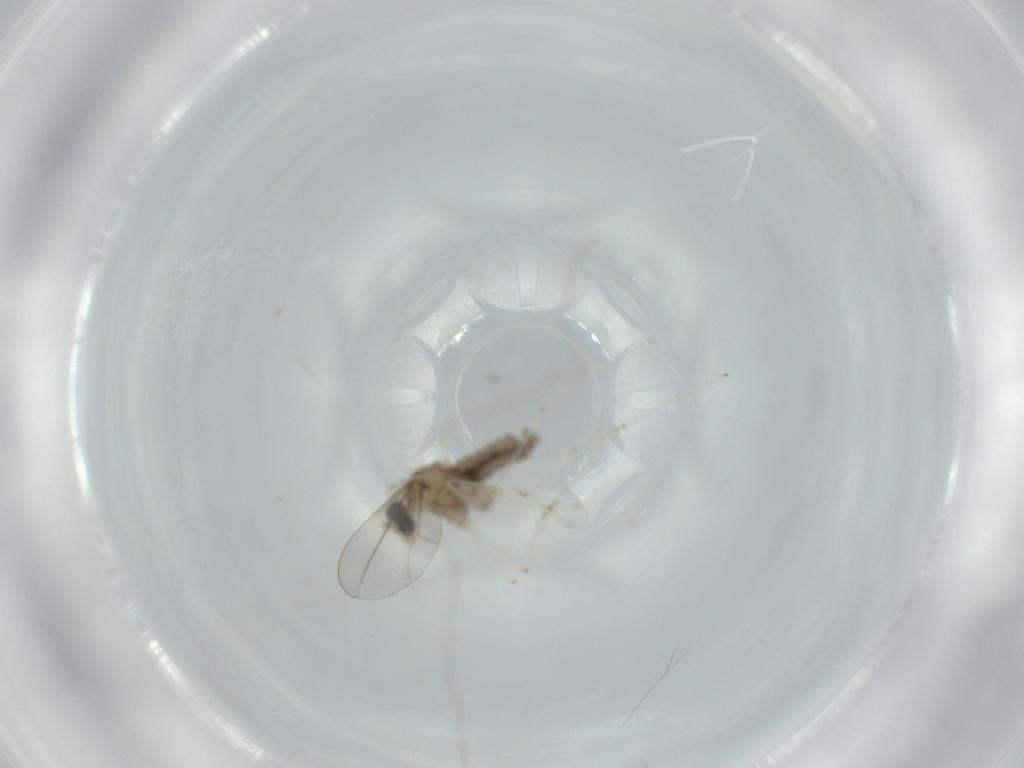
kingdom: Animalia
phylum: Arthropoda
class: Insecta
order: Diptera
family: Cecidomyiidae
